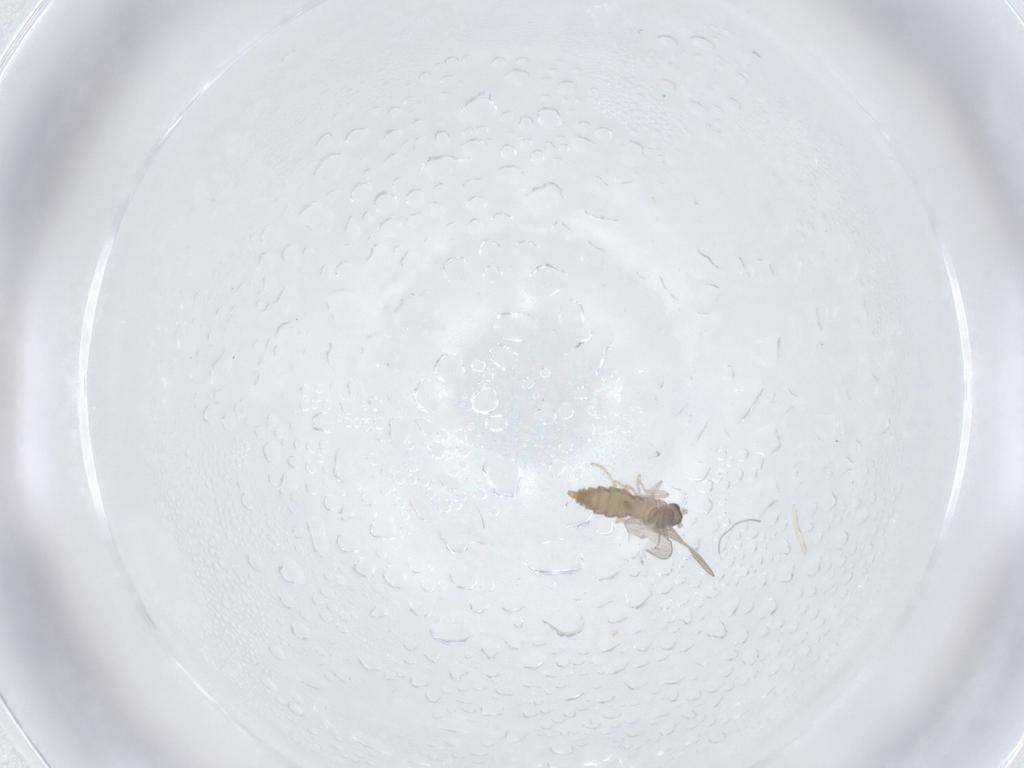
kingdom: Animalia
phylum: Arthropoda
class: Insecta
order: Diptera
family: Cecidomyiidae
